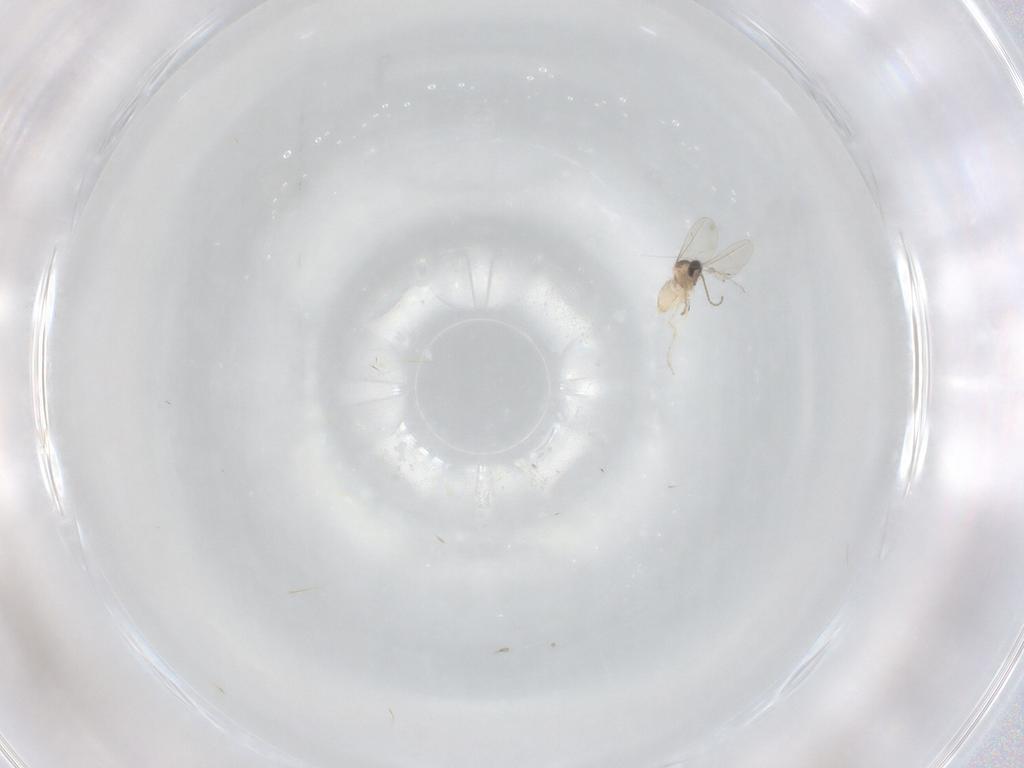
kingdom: Animalia
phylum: Arthropoda
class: Insecta
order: Diptera
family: Cecidomyiidae
